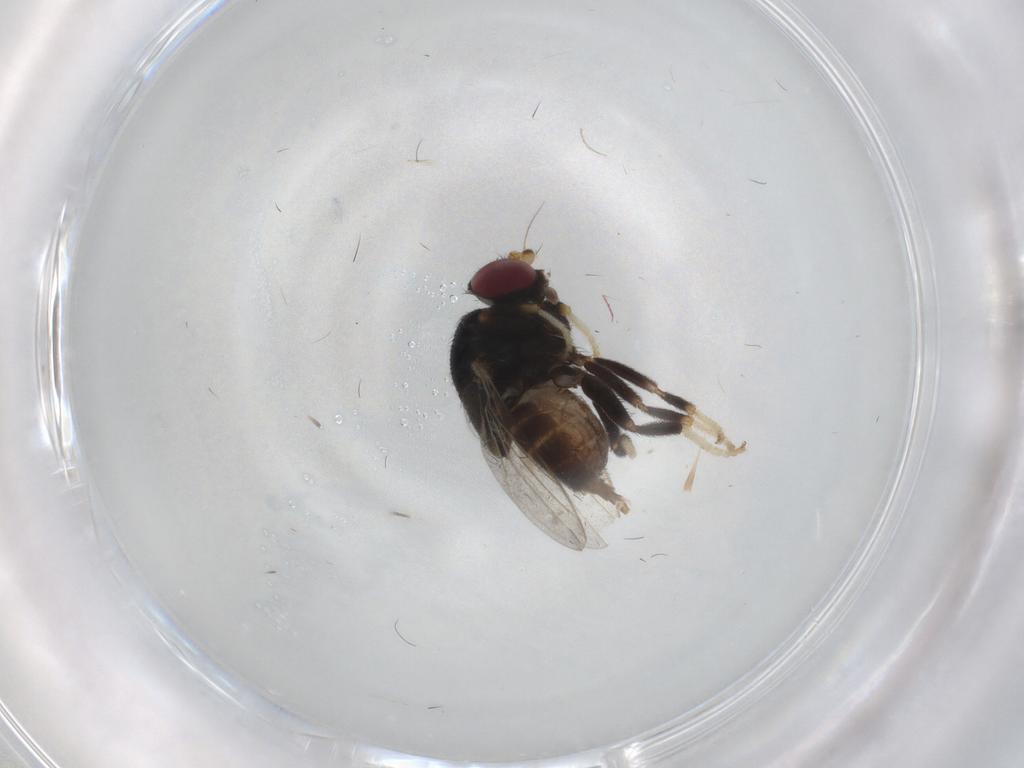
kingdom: Animalia
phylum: Arthropoda
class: Insecta
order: Diptera
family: Chloropidae
